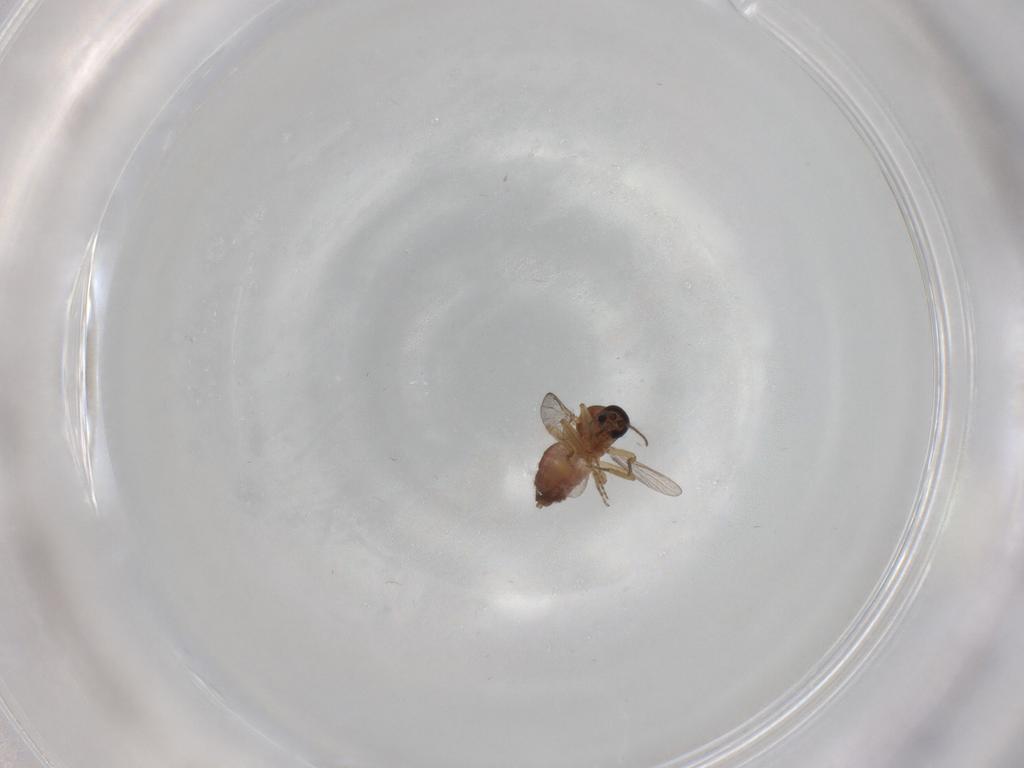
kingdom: Animalia
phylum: Arthropoda
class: Insecta
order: Diptera
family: Ceratopogonidae
